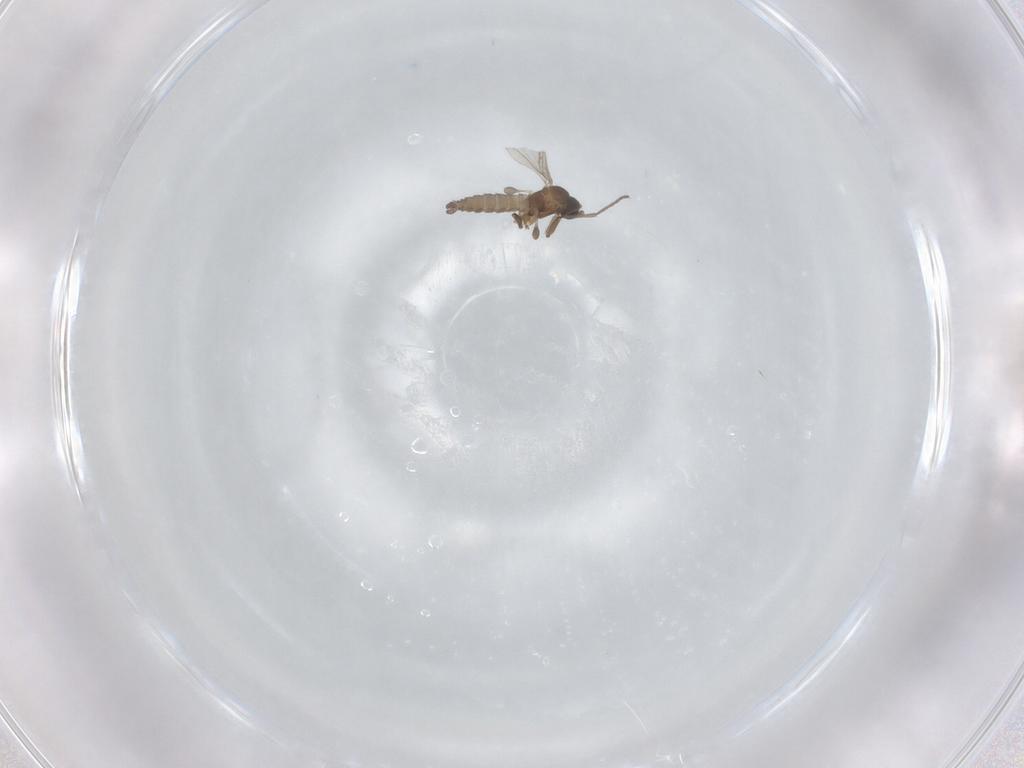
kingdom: Animalia
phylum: Arthropoda
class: Insecta
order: Diptera
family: Sciaridae
